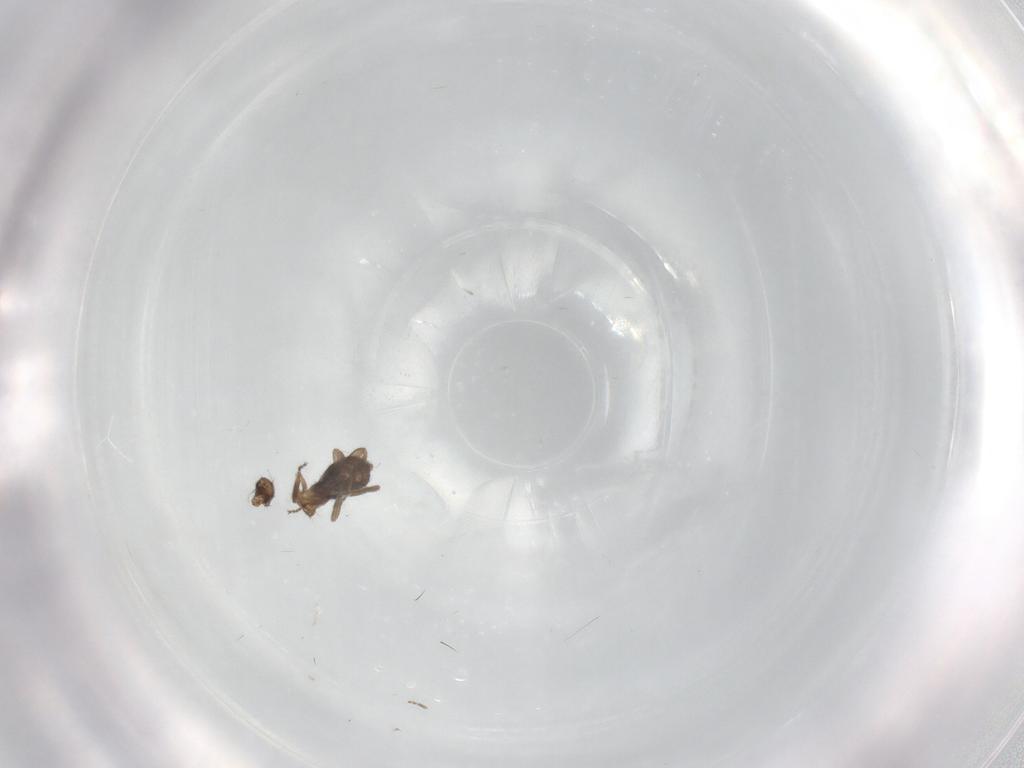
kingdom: Animalia
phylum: Arthropoda
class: Insecta
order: Diptera
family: Phoridae
